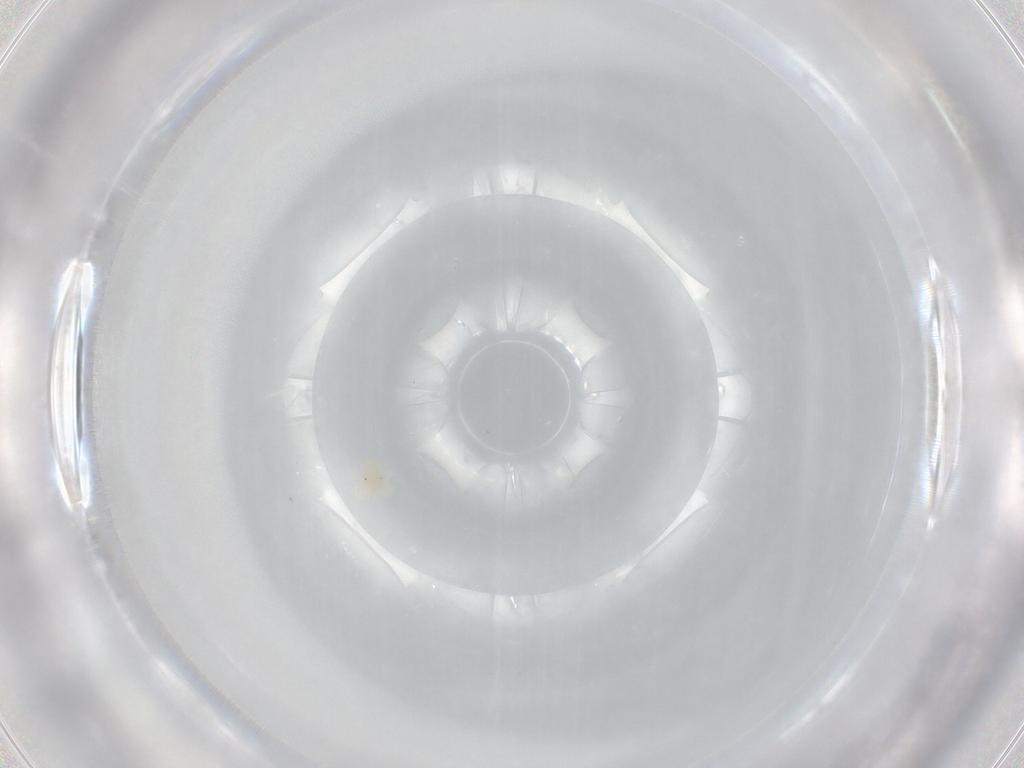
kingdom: Animalia
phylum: Arthropoda
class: Arachnida
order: Trombidiformes
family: Anystidae
